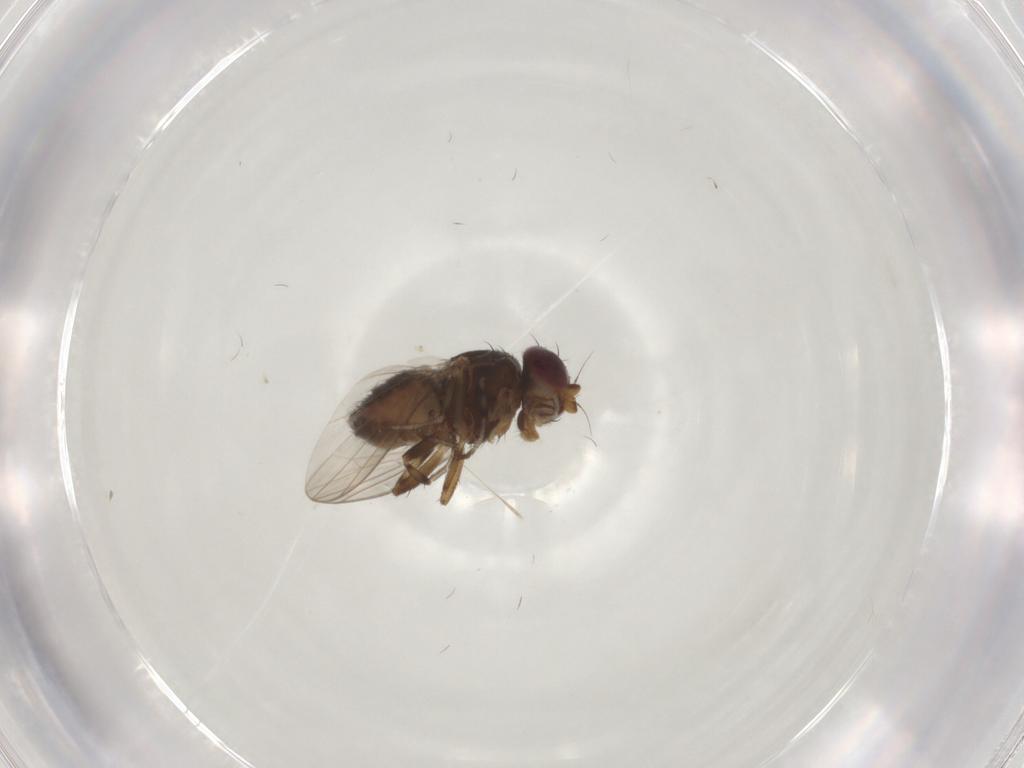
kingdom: Animalia
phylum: Arthropoda
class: Insecta
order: Diptera
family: Heleomyzidae
